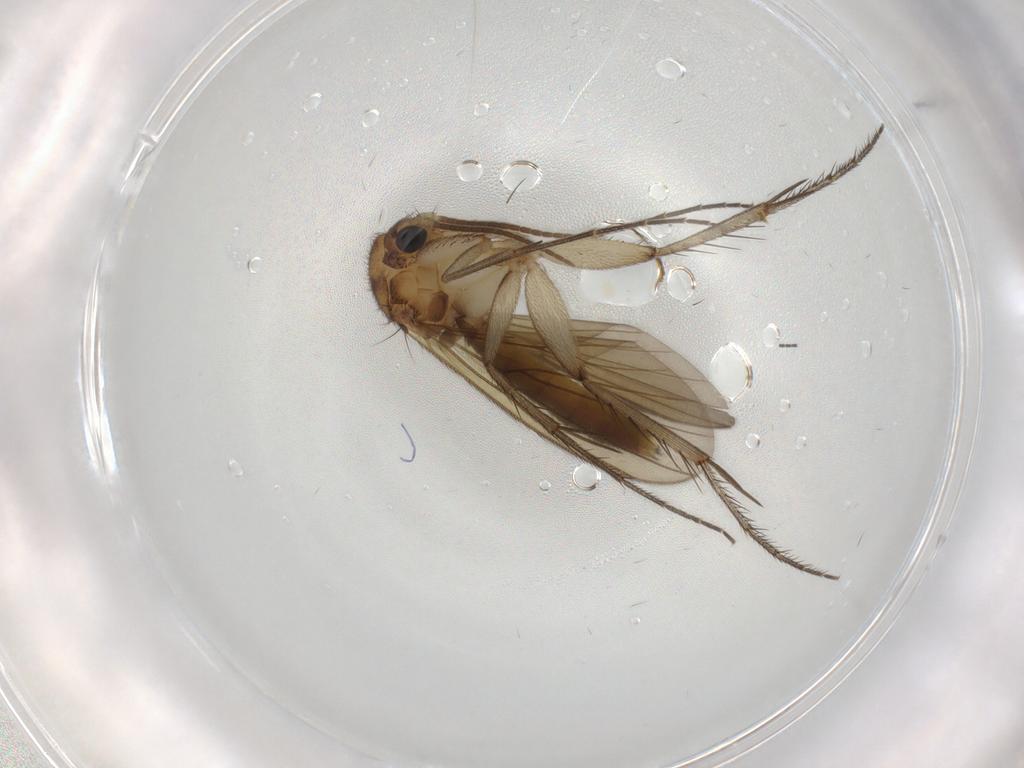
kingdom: Animalia
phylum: Arthropoda
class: Insecta
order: Diptera
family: Mycetophilidae
